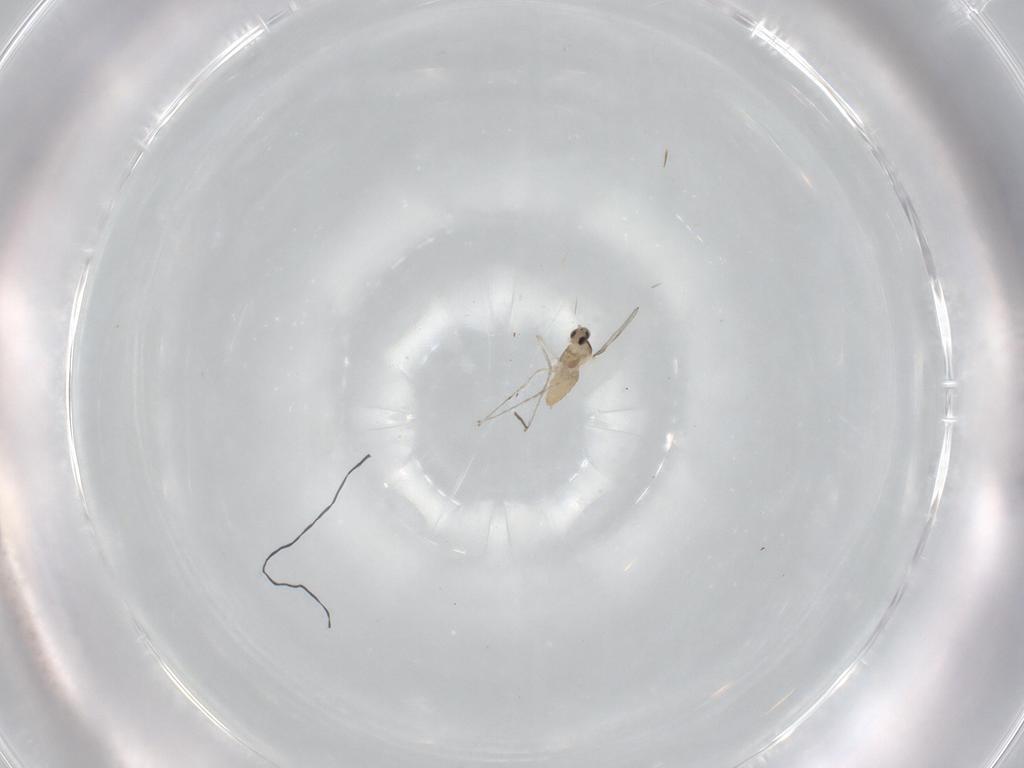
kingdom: Animalia
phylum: Arthropoda
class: Insecta
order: Diptera
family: Cecidomyiidae
